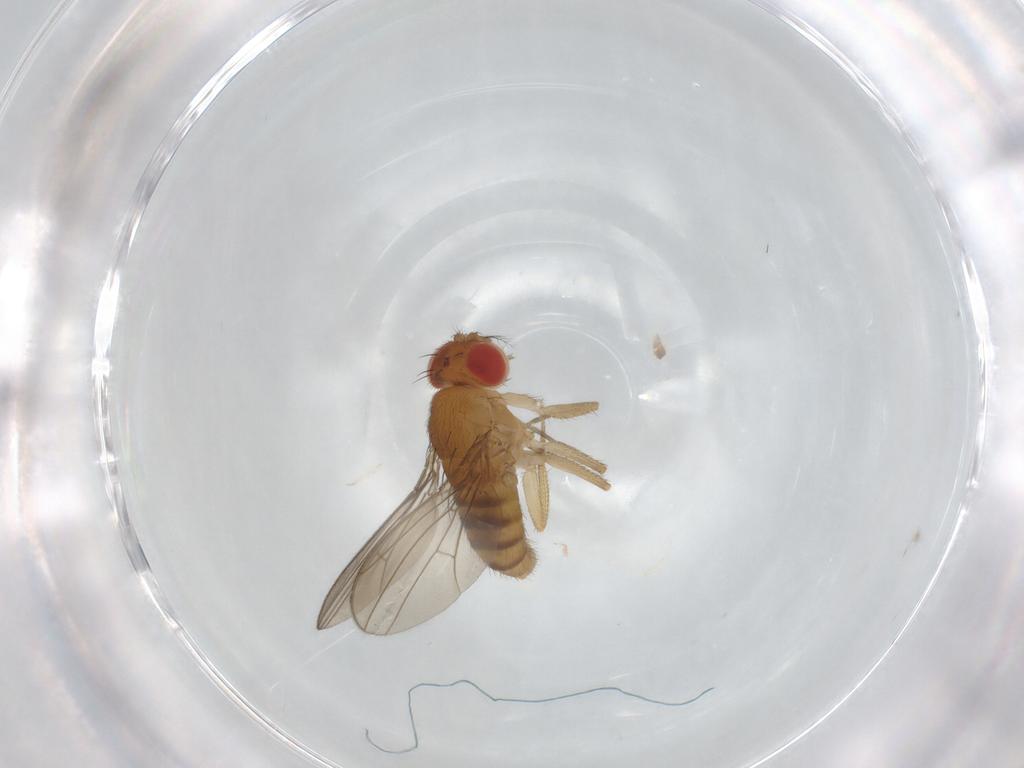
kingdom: Animalia
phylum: Arthropoda
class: Insecta
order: Diptera
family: Drosophilidae
